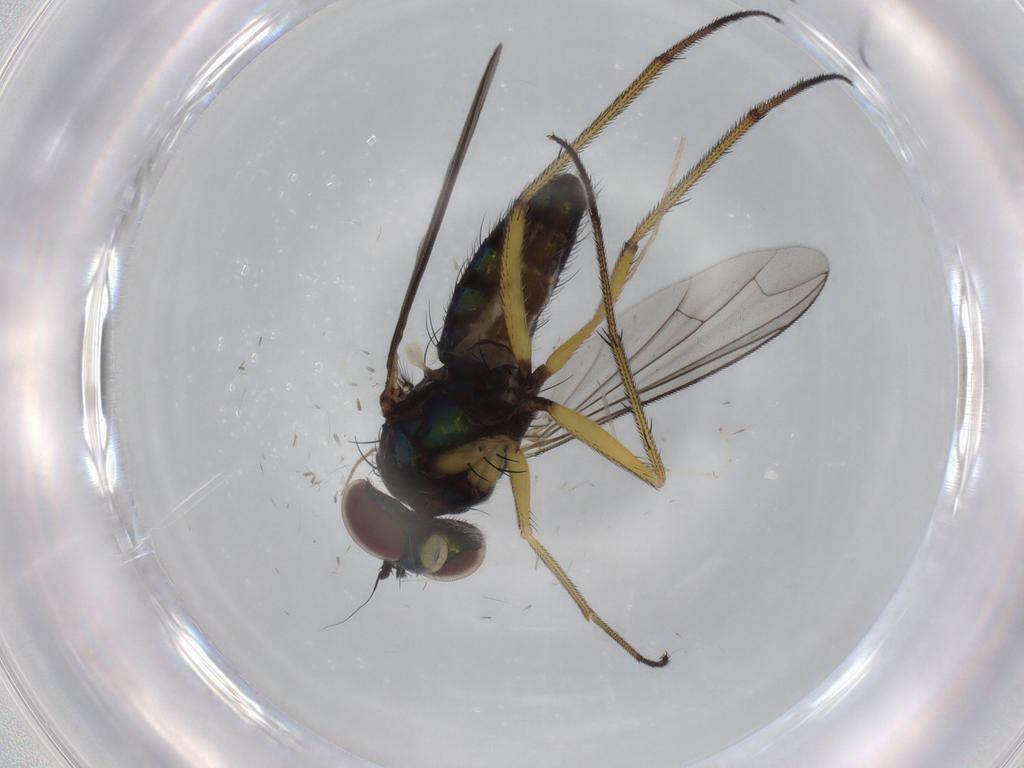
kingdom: Animalia
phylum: Arthropoda
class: Insecta
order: Diptera
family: Dolichopodidae
